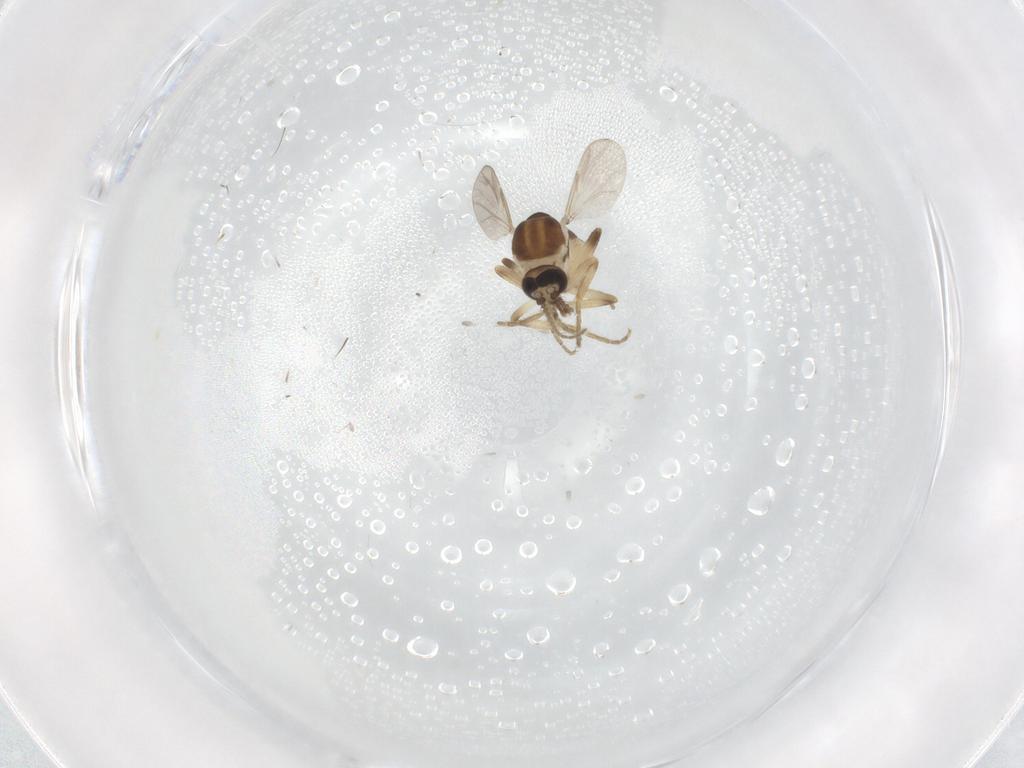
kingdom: Animalia
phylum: Arthropoda
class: Insecta
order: Diptera
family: Ceratopogonidae
